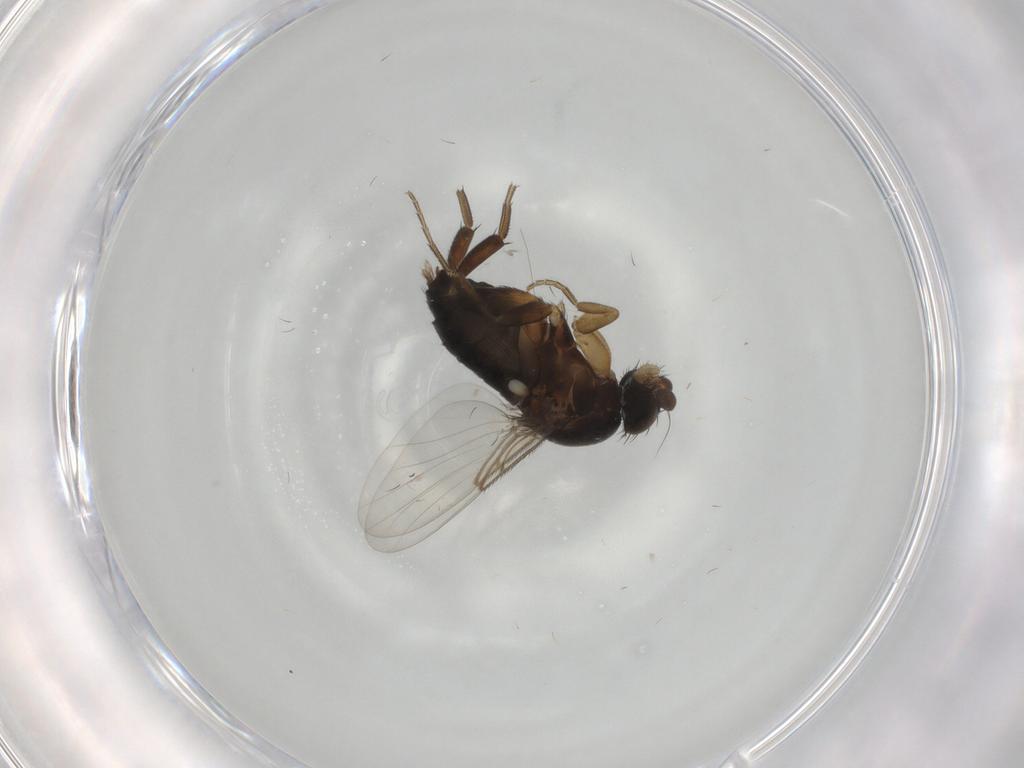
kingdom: Animalia
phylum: Arthropoda
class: Insecta
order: Diptera
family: Phoridae
